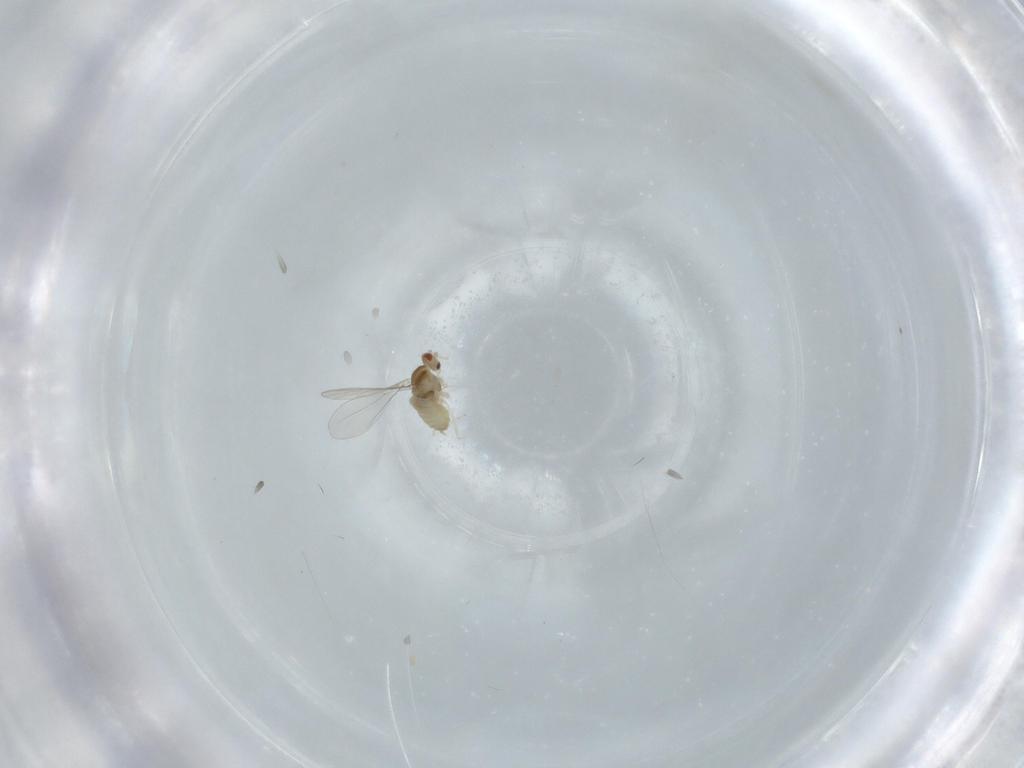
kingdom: Animalia
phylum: Arthropoda
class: Insecta
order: Diptera
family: Cecidomyiidae
